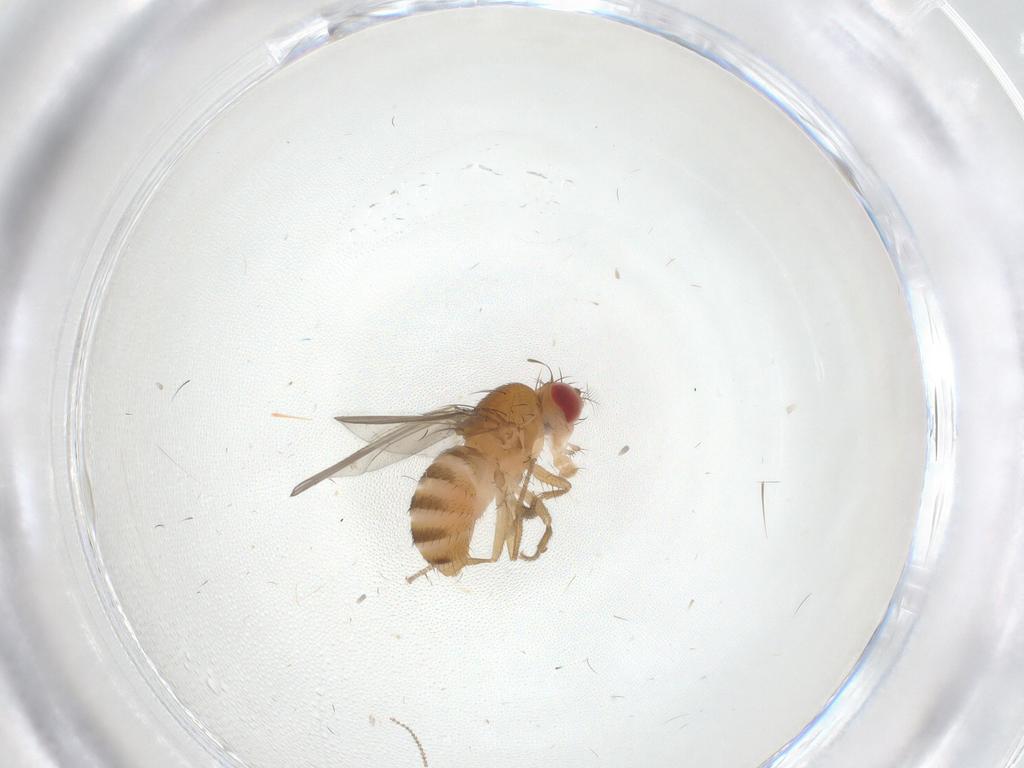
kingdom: Animalia
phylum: Arthropoda
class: Insecta
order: Diptera
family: Drosophilidae
